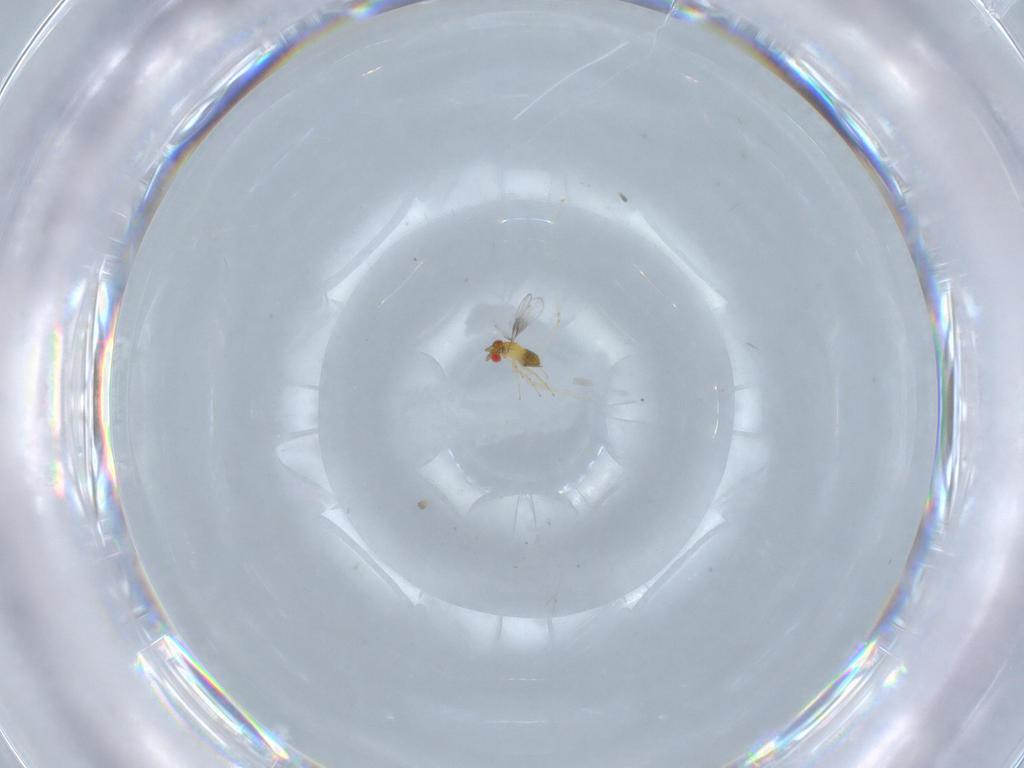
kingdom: Animalia
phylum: Arthropoda
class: Insecta
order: Hymenoptera
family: Trichogrammatidae
